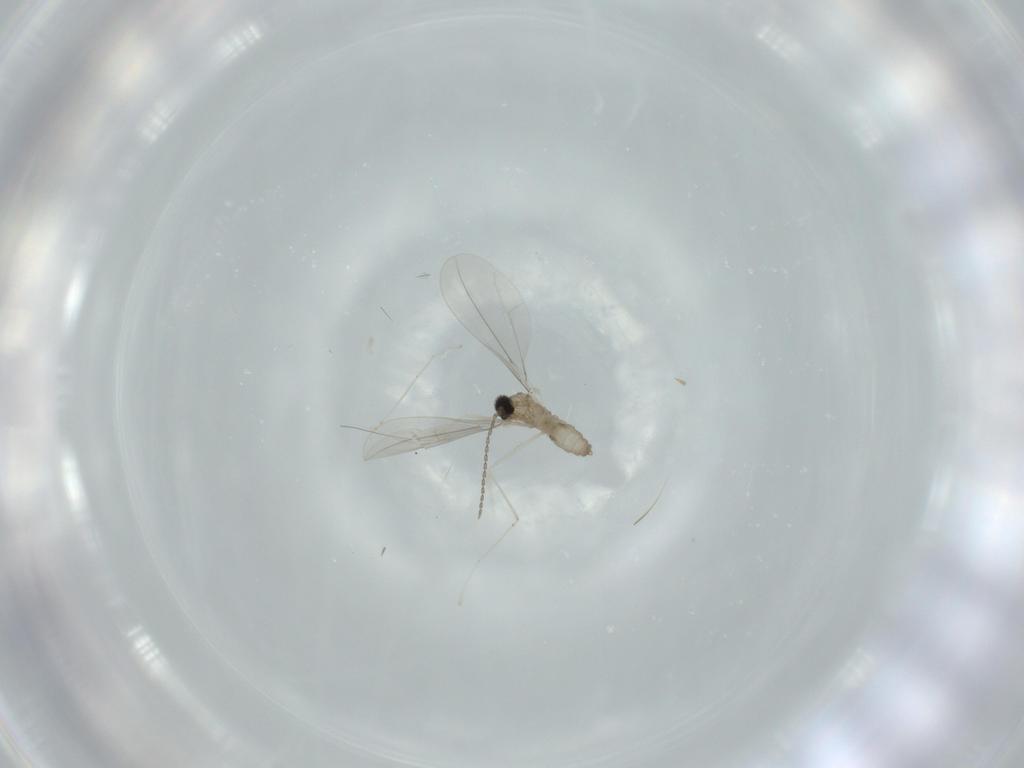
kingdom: Animalia
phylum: Arthropoda
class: Insecta
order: Diptera
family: Cecidomyiidae
